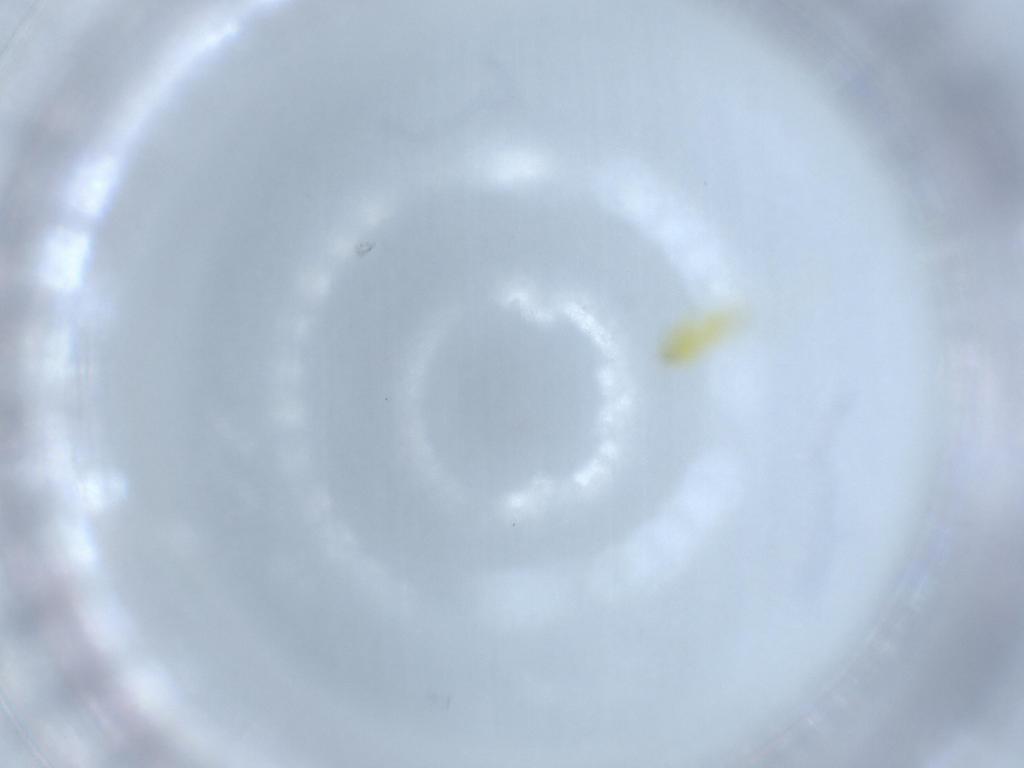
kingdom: Animalia
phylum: Arthropoda
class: Insecta
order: Hemiptera
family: Aleyrodidae
